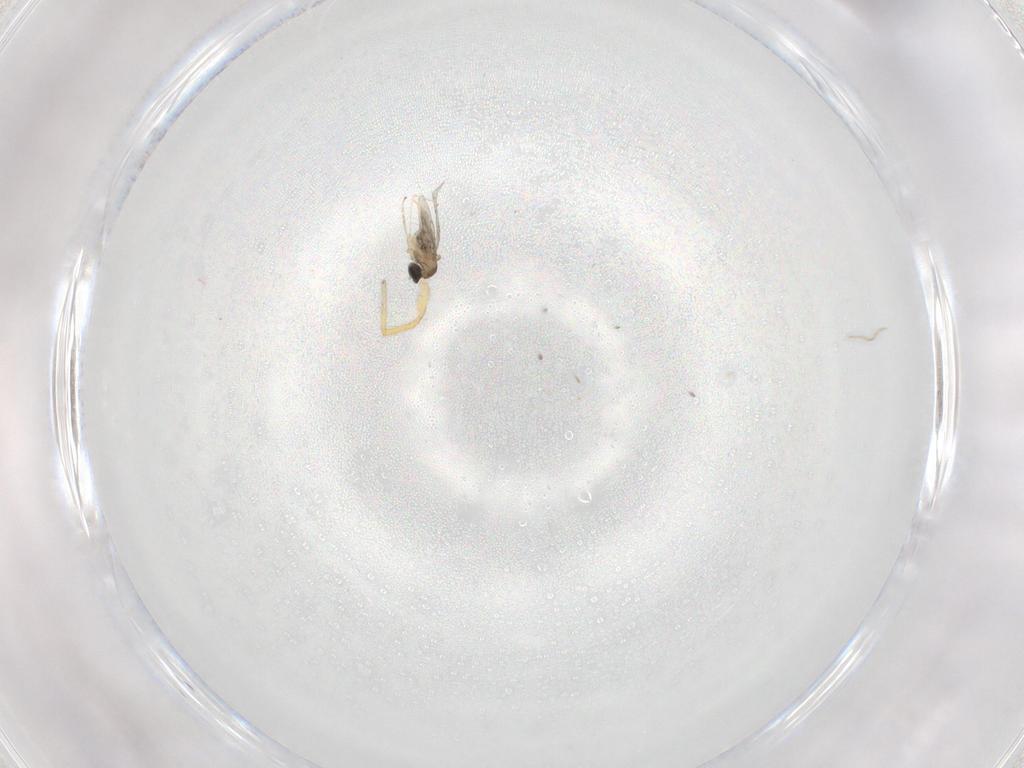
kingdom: Animalia
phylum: Arthropoda
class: Insecta
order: Diptera
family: Cecidomyiidae
